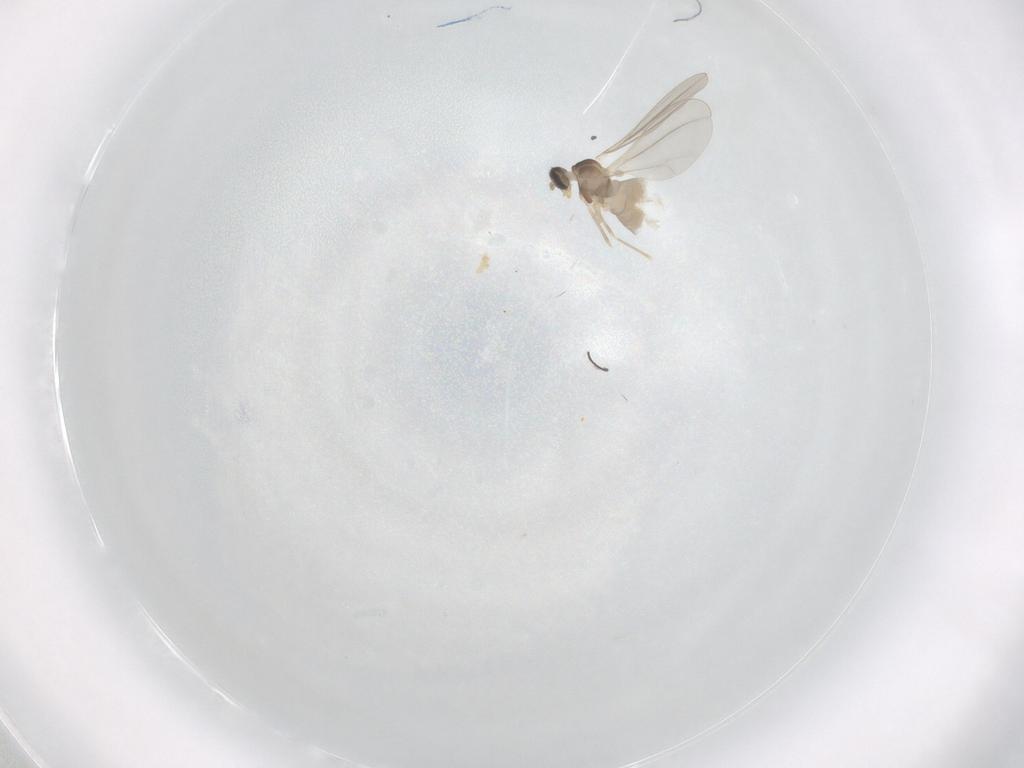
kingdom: Animalia
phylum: Arthropoda
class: Insecta
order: Diptera
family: Cecidomyiidae
